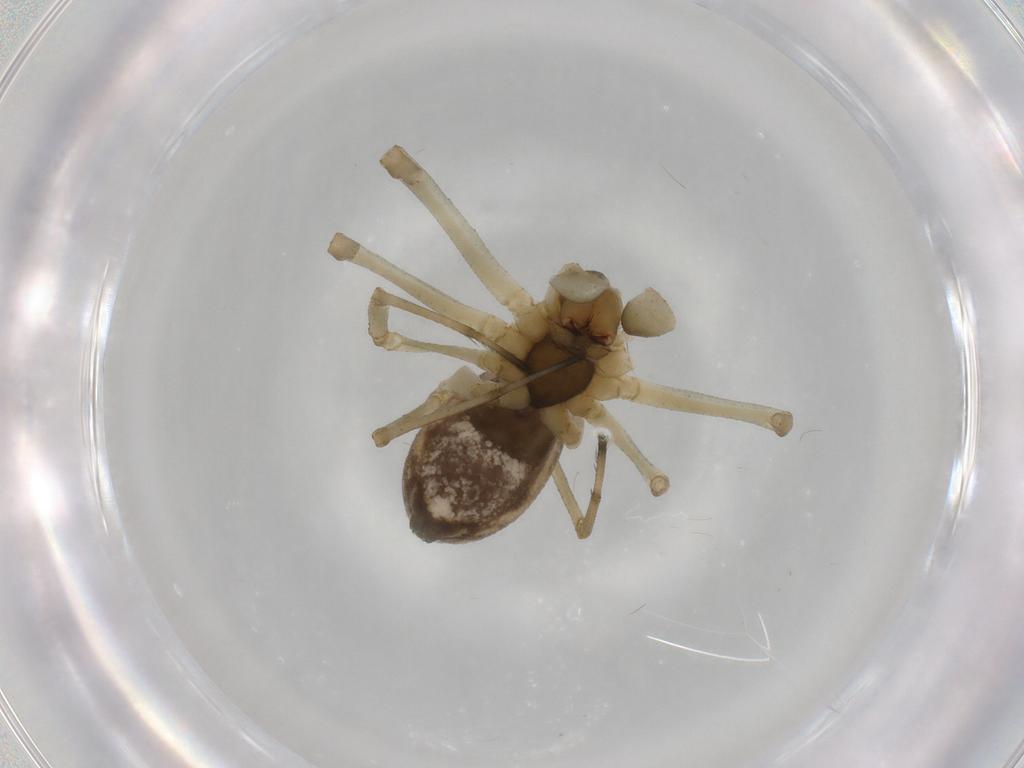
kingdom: Animalia
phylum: Arthropoda
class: Arachnida
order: Araneae
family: Linyphiidae
